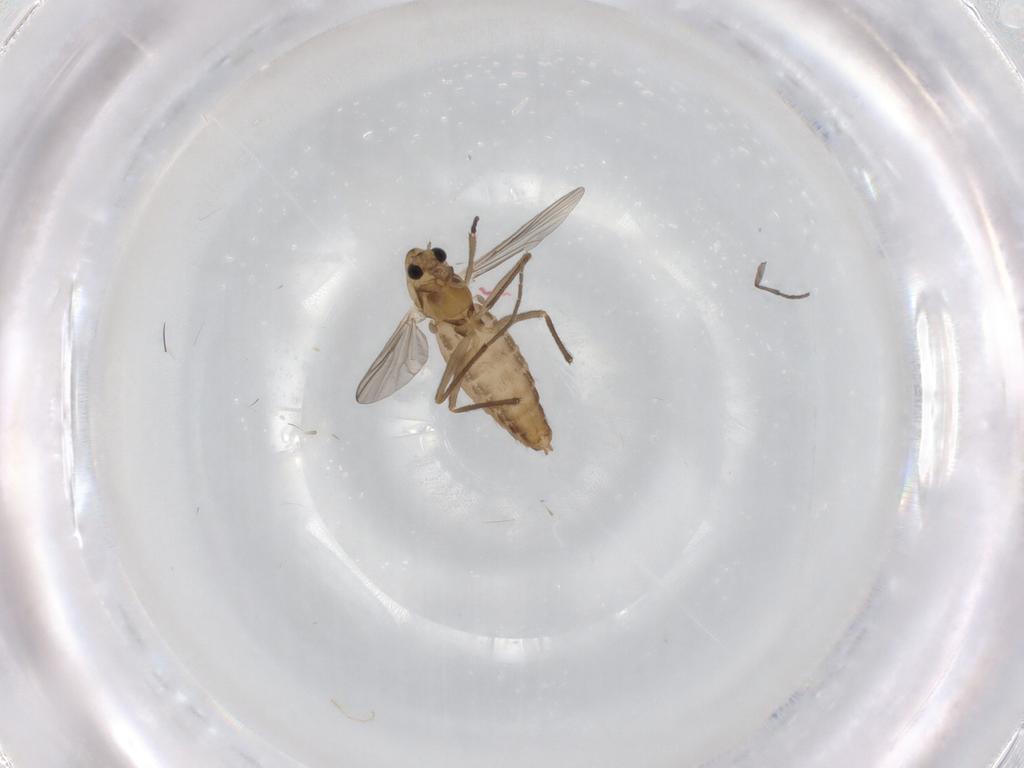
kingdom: Animalia
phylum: Arthropoda
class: Insecta
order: Diptera
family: Chironomidae
